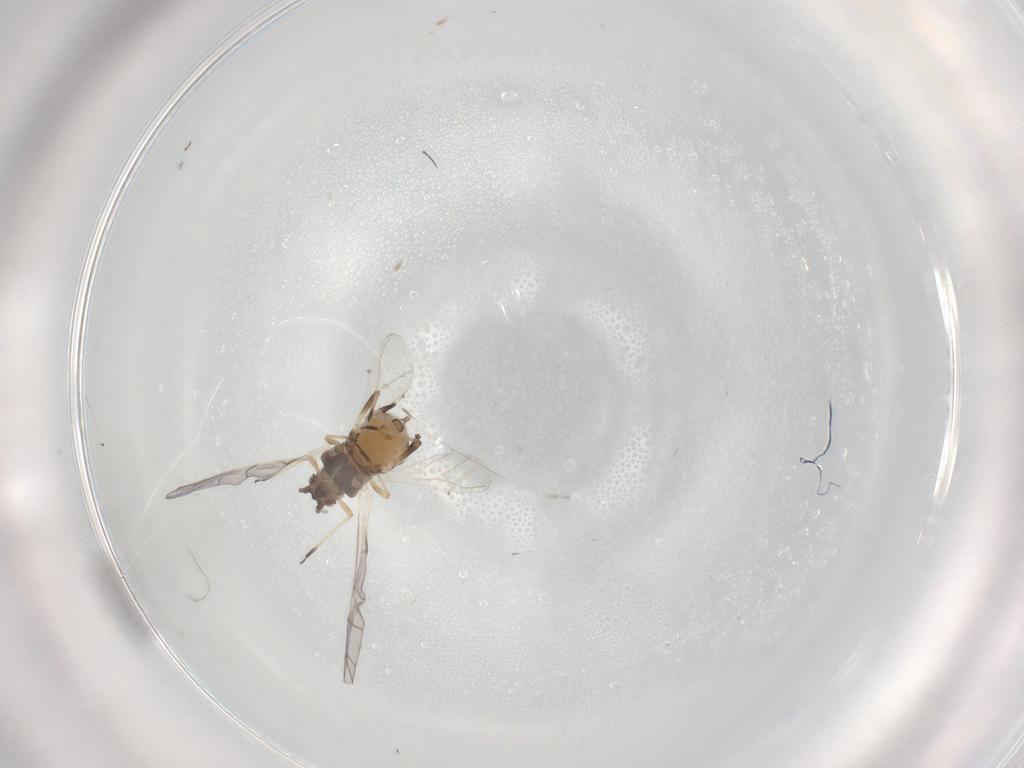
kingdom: Animalia
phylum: Arthropoda
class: Insecta
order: Hemiptera
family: Aphididae
